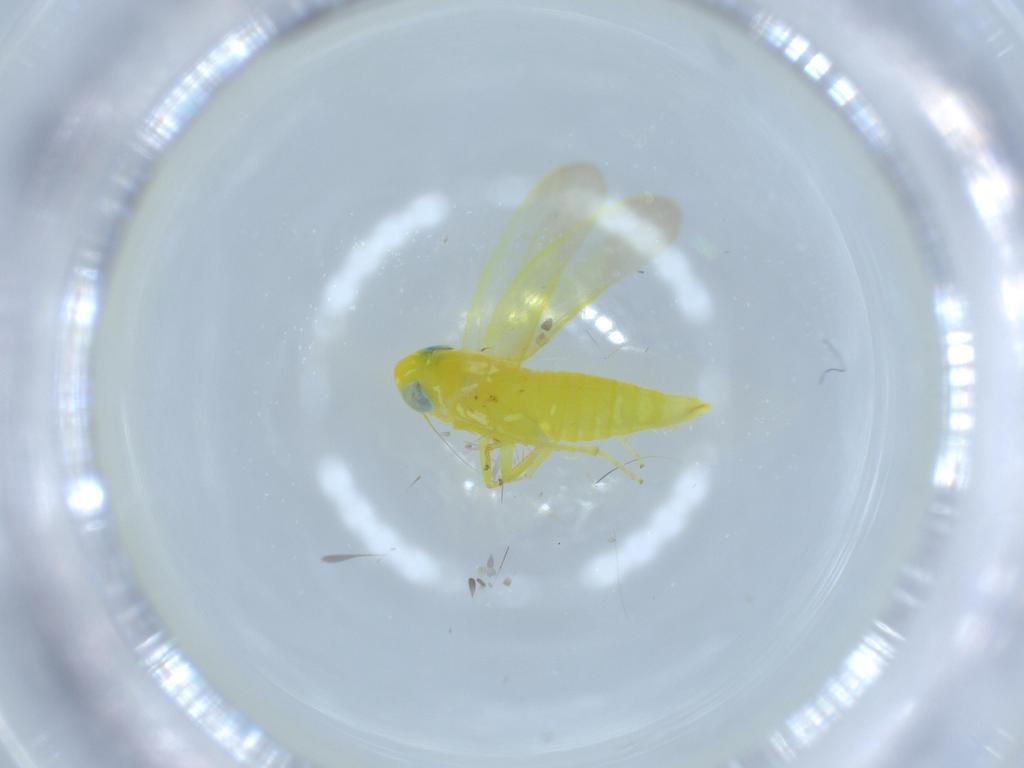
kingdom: Animalia
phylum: Arthropoda
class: Insecta
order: Hemiptera
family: Cicadellidae
